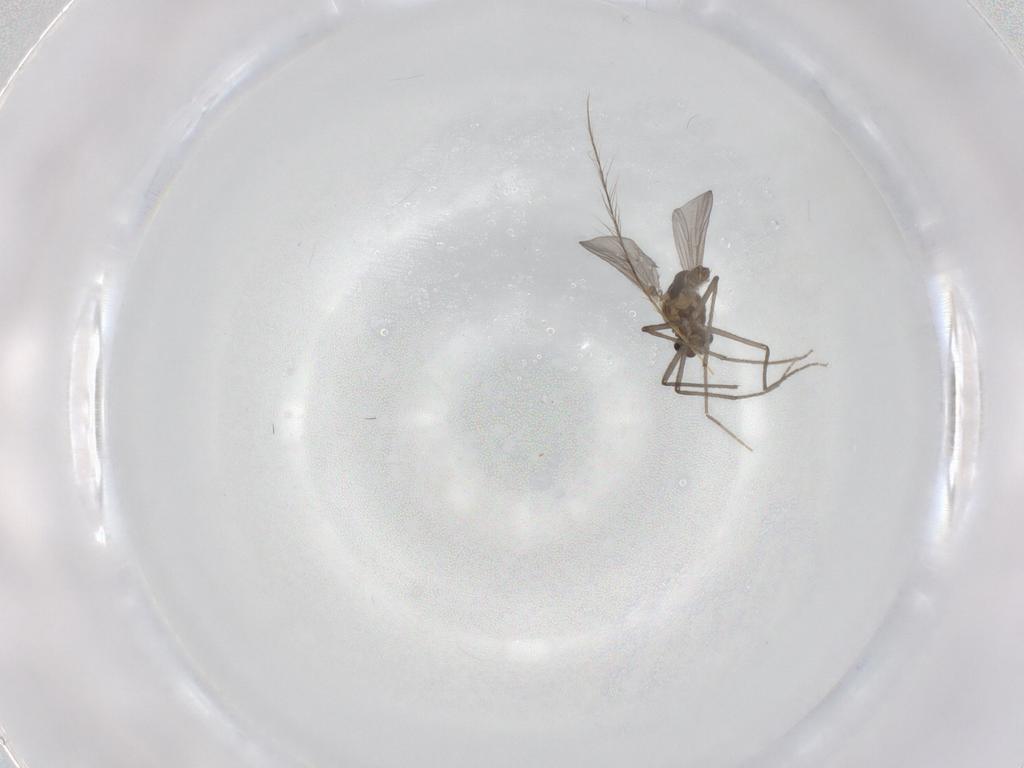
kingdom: Animalia
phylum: Arthropoda
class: Insecta
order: Diptera
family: Chironomidae
